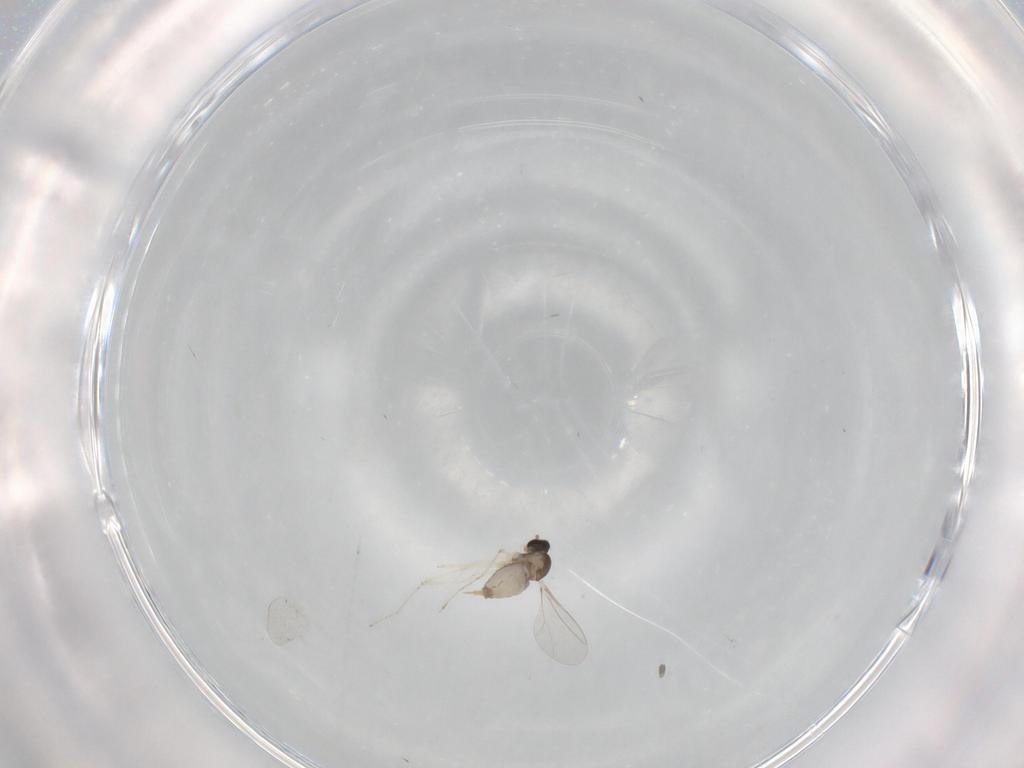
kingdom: Animalia
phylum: Arthropoda
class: Insecta
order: Diptera
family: Cecidomyiidae
